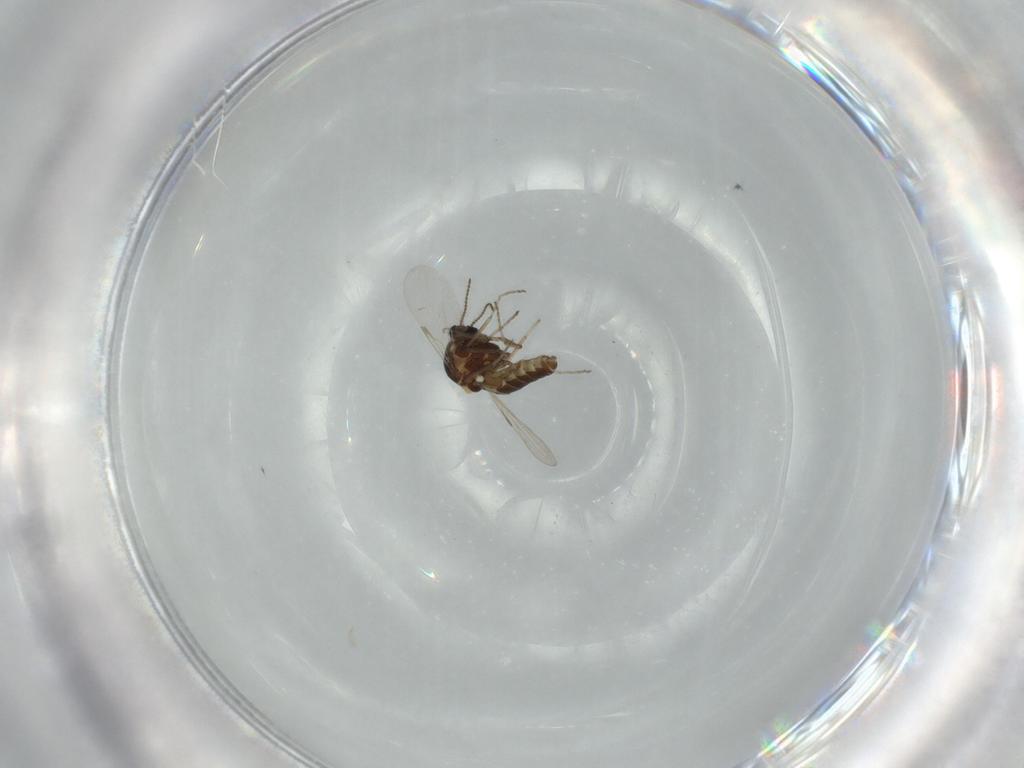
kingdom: Animalia
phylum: Arthropoda
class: Insecta
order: Diptera
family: Ceratopogonidae
